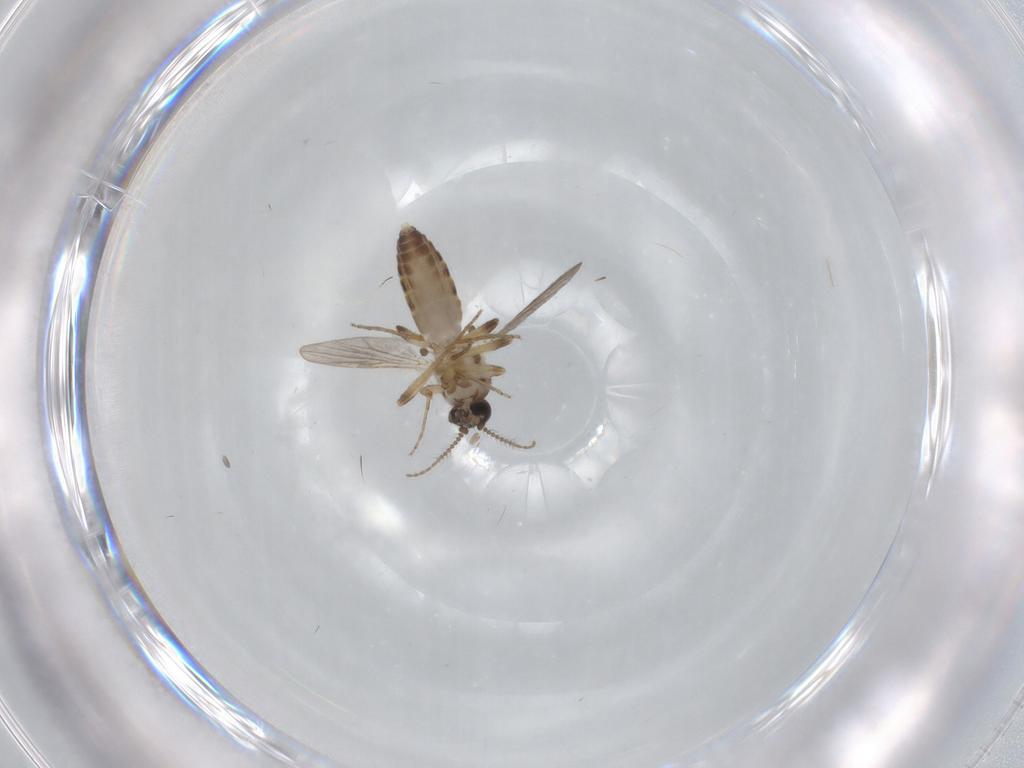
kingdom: Animalia
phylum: Arthropoda
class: Insecta
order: Diptera
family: Ceratopogonidae
